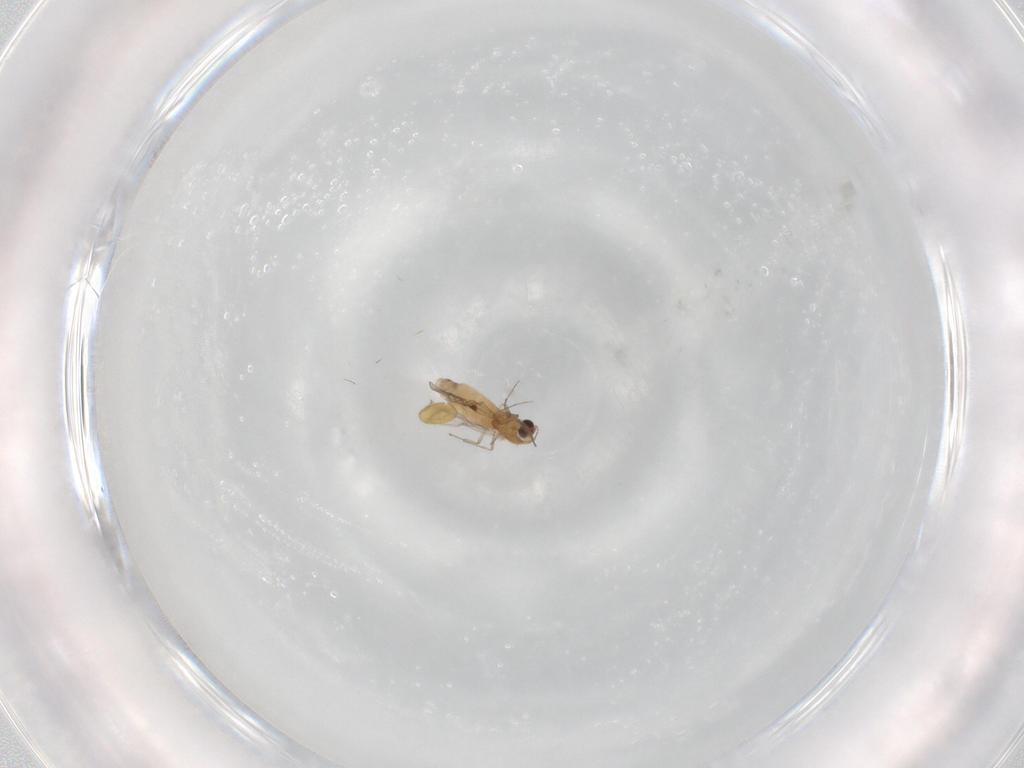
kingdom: Animalia
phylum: Arthropoda
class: Insecta
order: Diptera
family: Empididae
